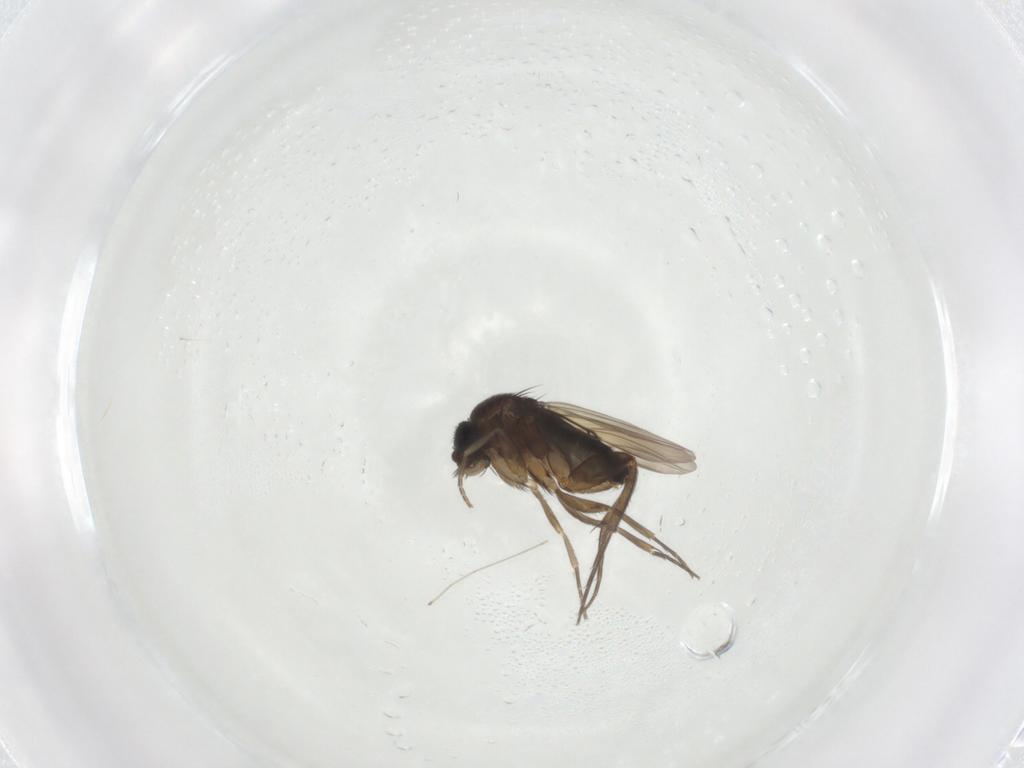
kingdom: Animalia
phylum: Arthropoda
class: Insecta
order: Diptera
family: Phoridae
